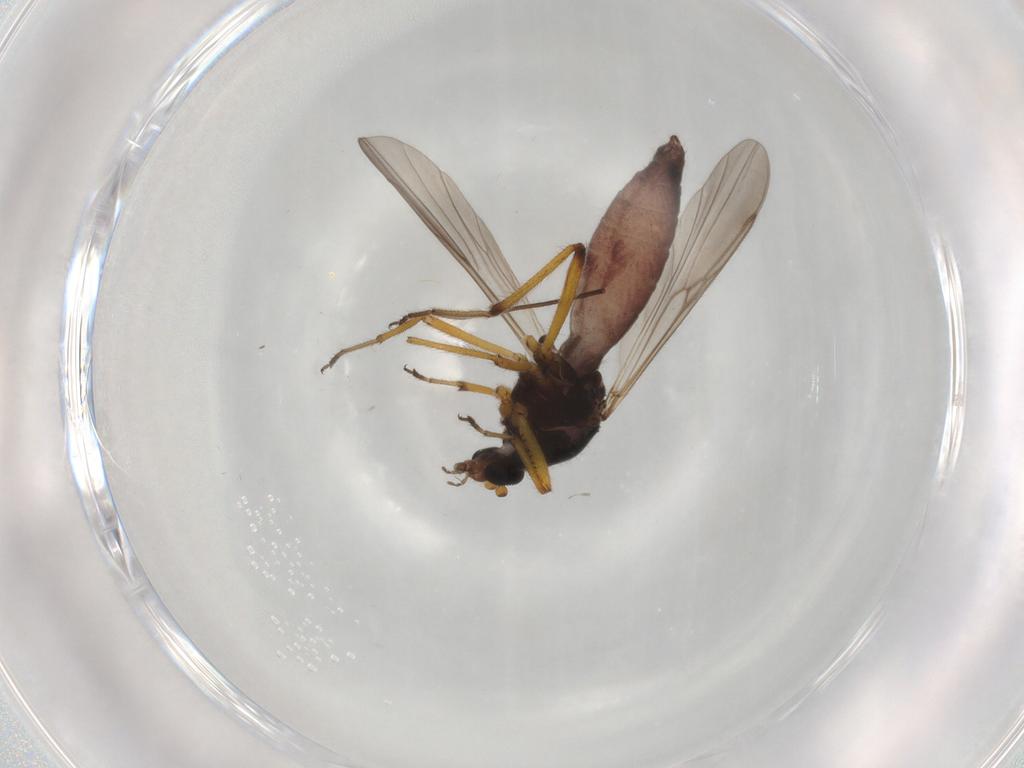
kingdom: Animalia
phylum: Arthropoda
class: Insecta
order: Diptera
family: Ceratopogonidae
